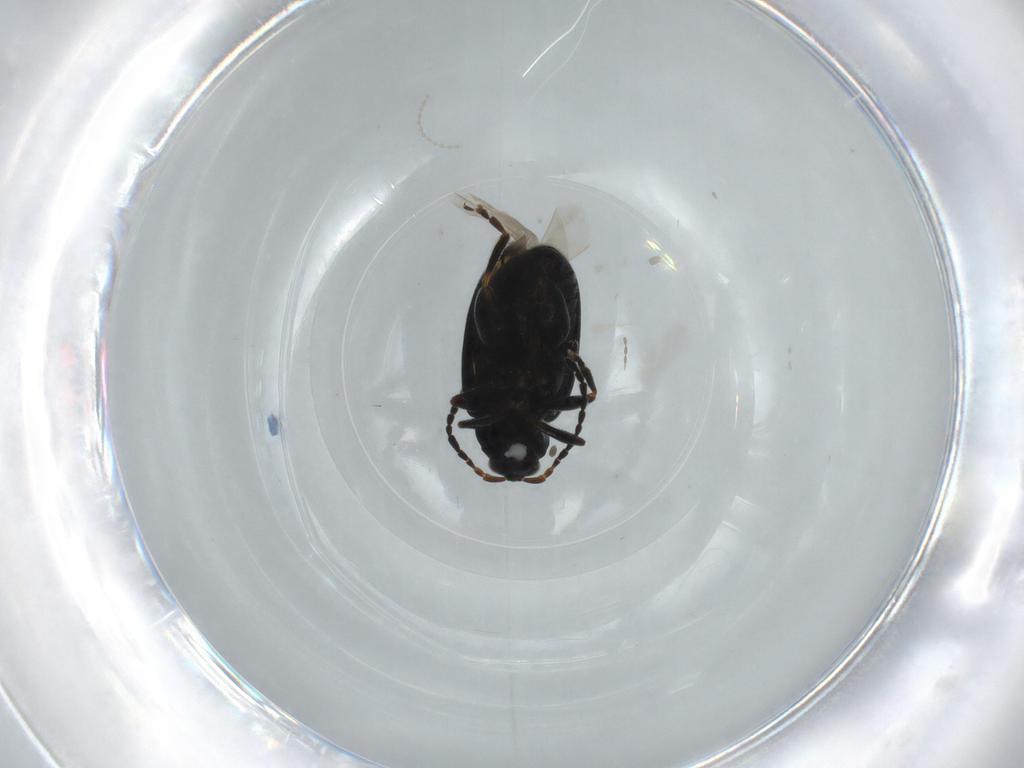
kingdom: Animalia
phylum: Arthropoda
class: Insecta
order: Coleoptera
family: Chrysomelidae
